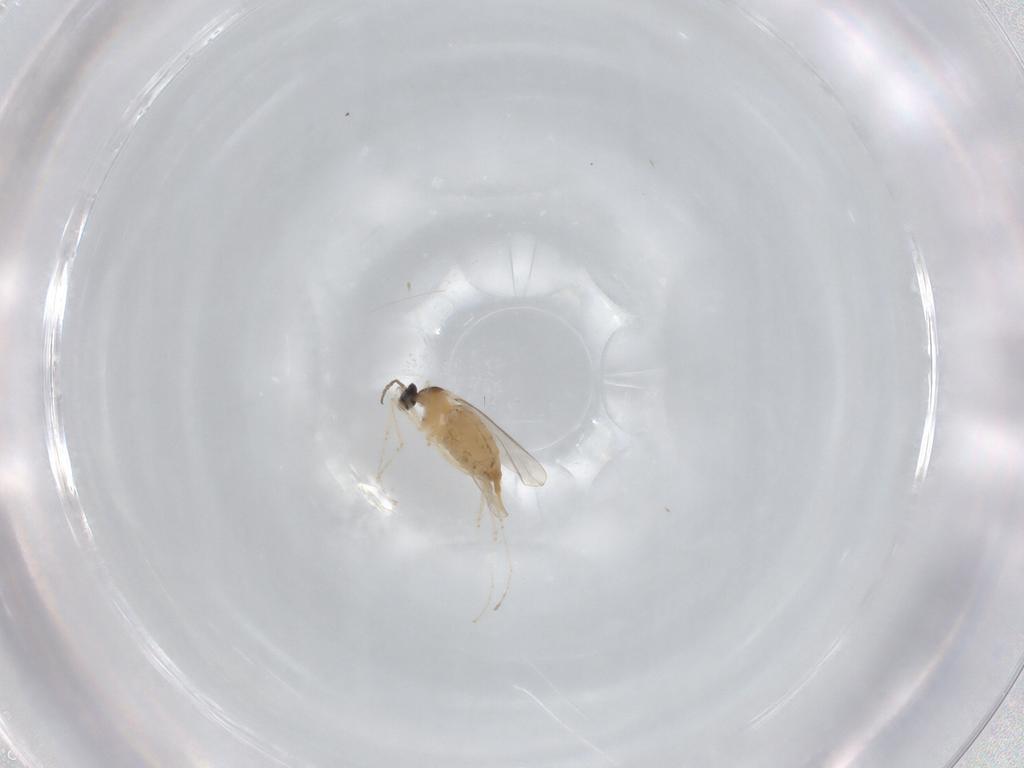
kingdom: Animalia
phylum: Arthropoda
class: Insecta
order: Diptera
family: Cecidomyiidae
